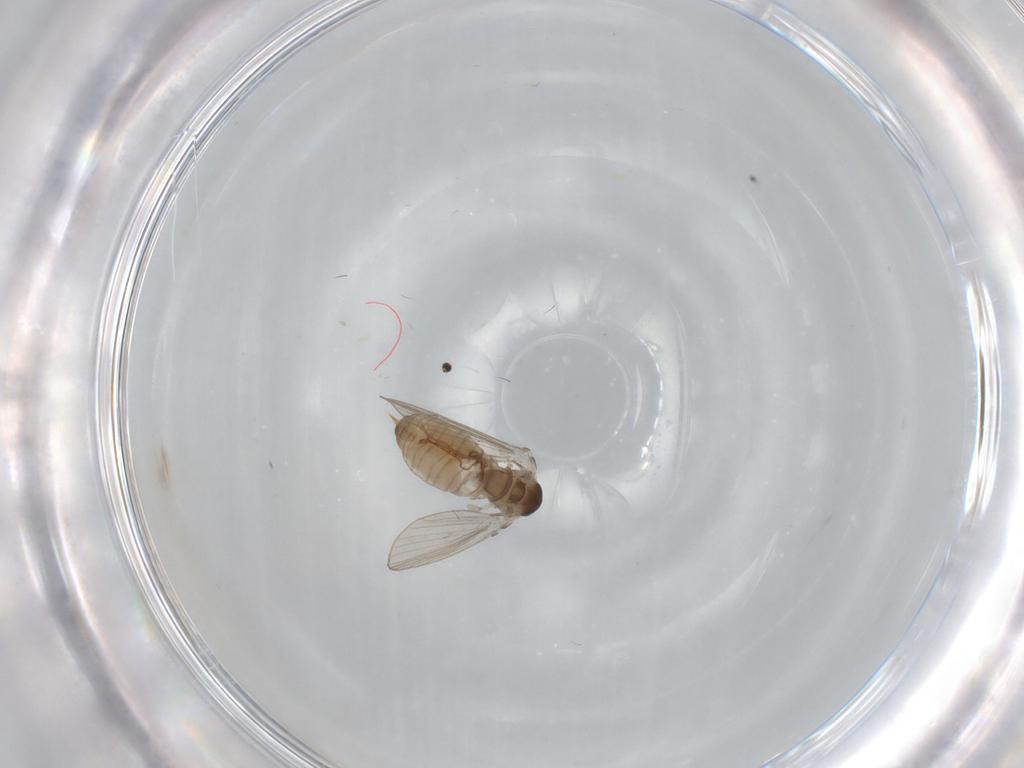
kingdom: Animalia
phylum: Arthropoda
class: Insecta
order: Diptera
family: Psychodidae
